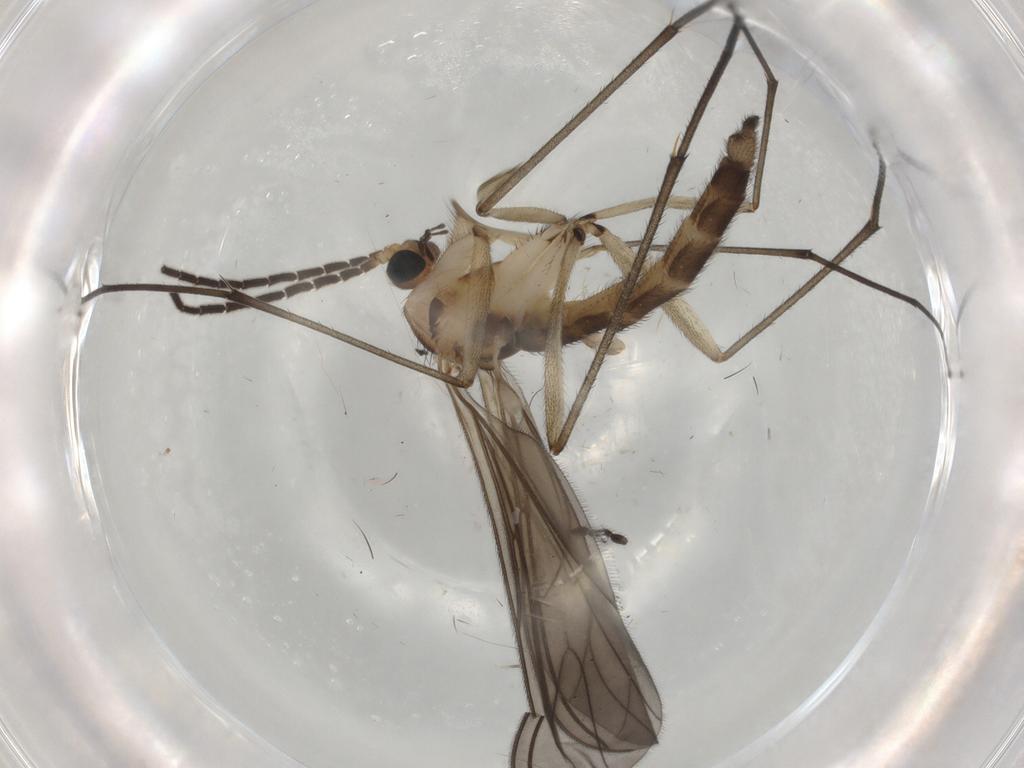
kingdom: Animalia
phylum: Arthropoda
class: Insecta
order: Diptera
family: Sciaridae
